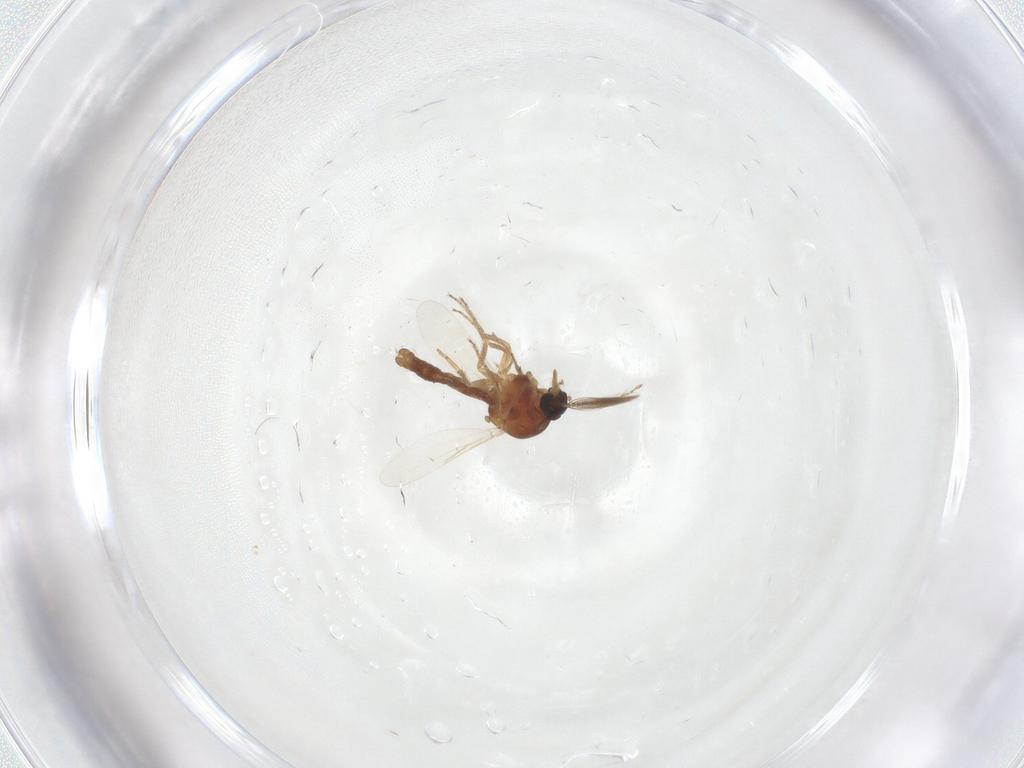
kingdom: Animalia
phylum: Arthropoda
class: Insecta
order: Diptera
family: Ceratopogonidae
